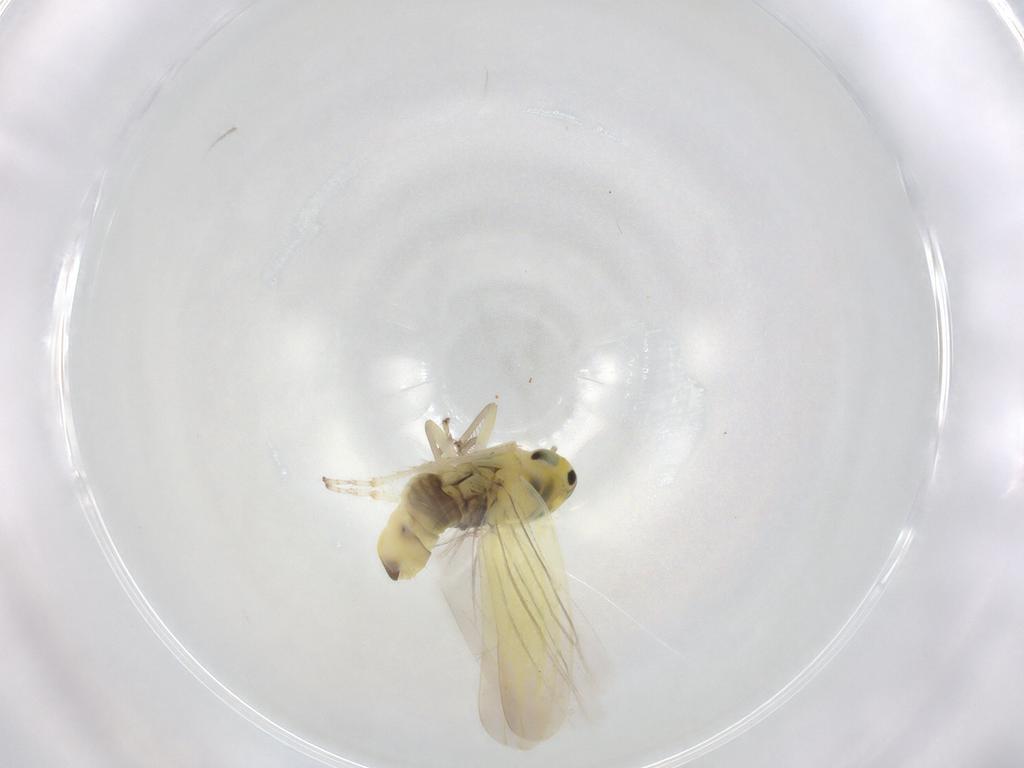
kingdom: Animalia
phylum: Arthropoda
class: Insecta
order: Hemiptera
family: Cicadellidae
